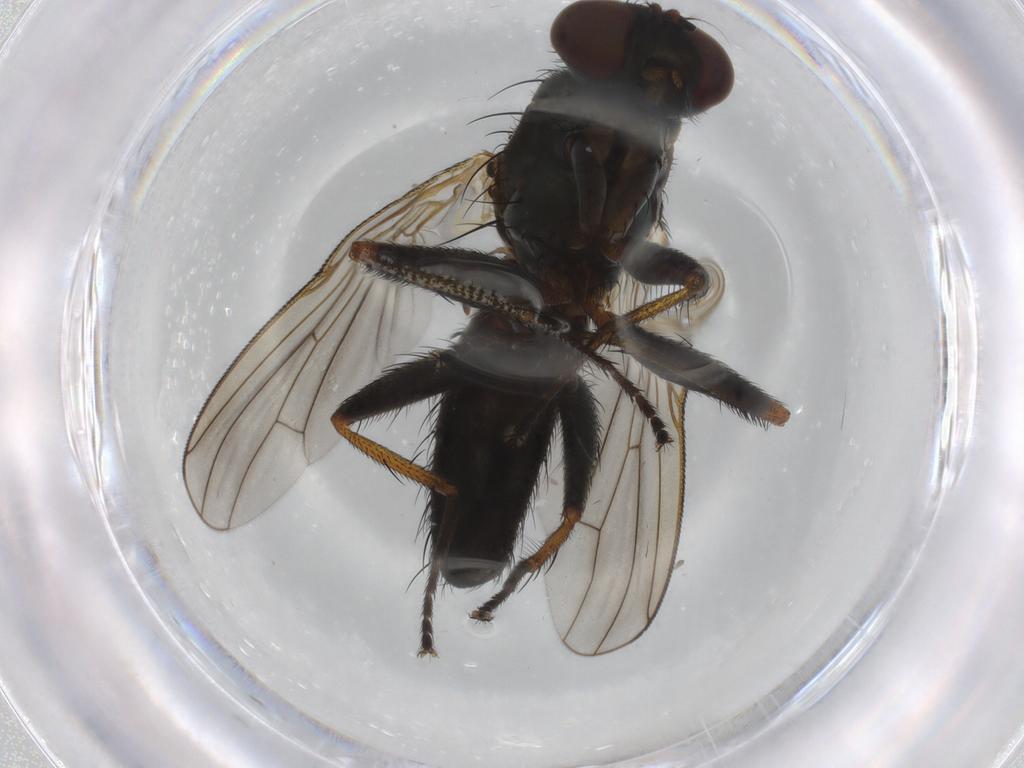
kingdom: Animalia
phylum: Arthropoda
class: Insecta
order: Diptera
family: Muscidae
